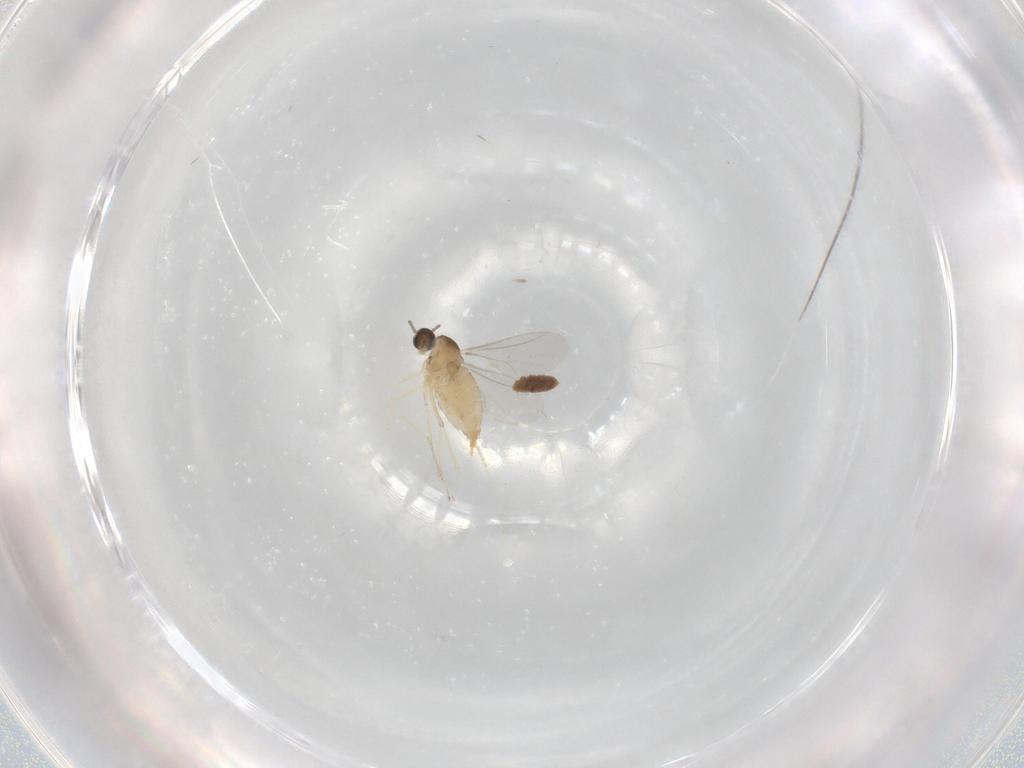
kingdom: Animalia
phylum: Arthropoda
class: Insecta
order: Diptera
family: Cecidomyiidae
